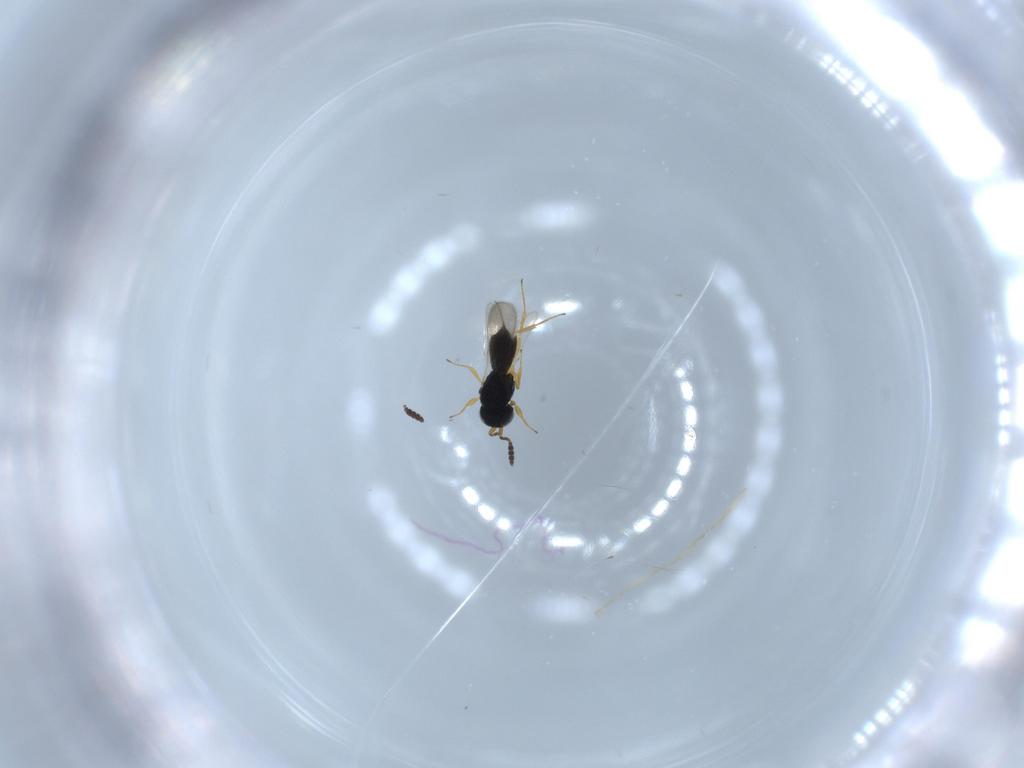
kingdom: Animalia
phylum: Arthropoda
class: Insecta
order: Hymenoptera
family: Scelionidae
